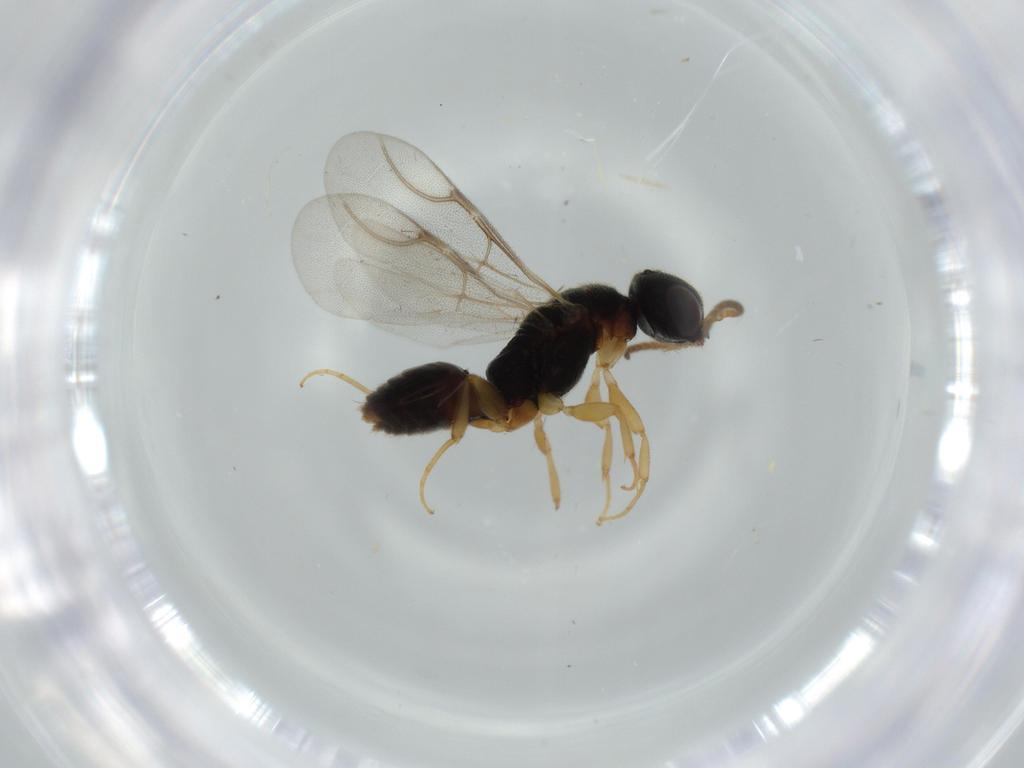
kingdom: Animalia
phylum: Arthropoda
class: Insecta
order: Hymenoptera
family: Bethylidae
